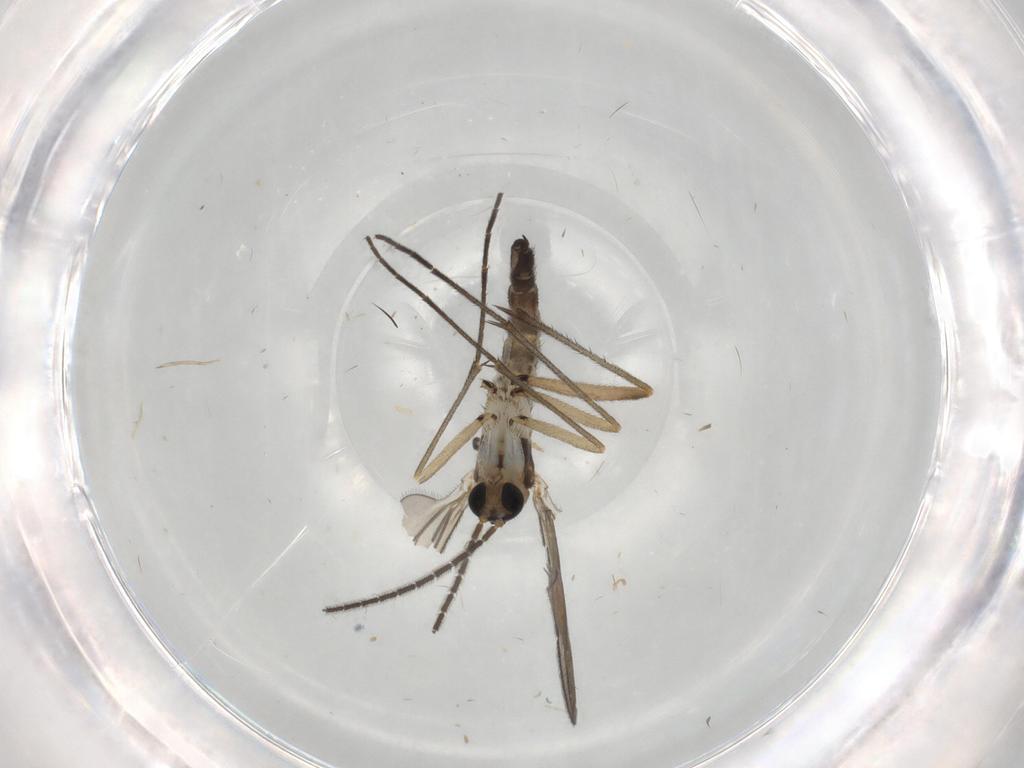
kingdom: Animalia
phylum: Arthropoda
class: Insecta
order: Diptera
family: Sciaridae
